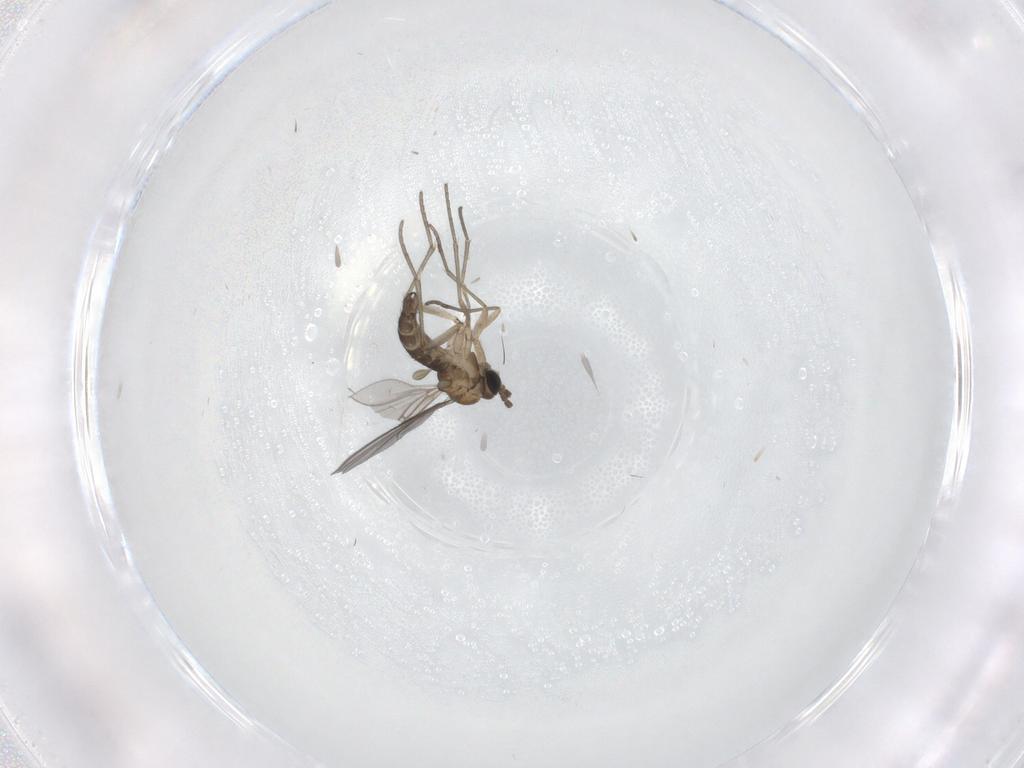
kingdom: Animalia
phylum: Arthropoda
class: Insecta
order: Diptera
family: Sciaridae
